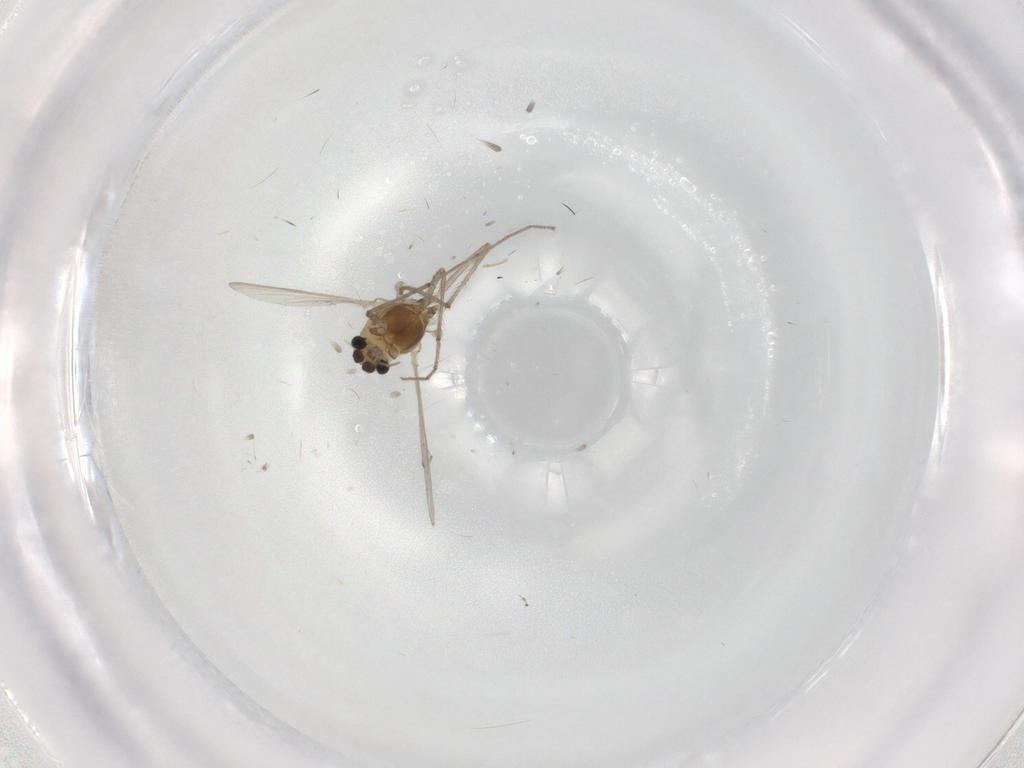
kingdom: Animalia
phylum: Arthropoda
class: Insecta
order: Diptera
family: Chironomidae
